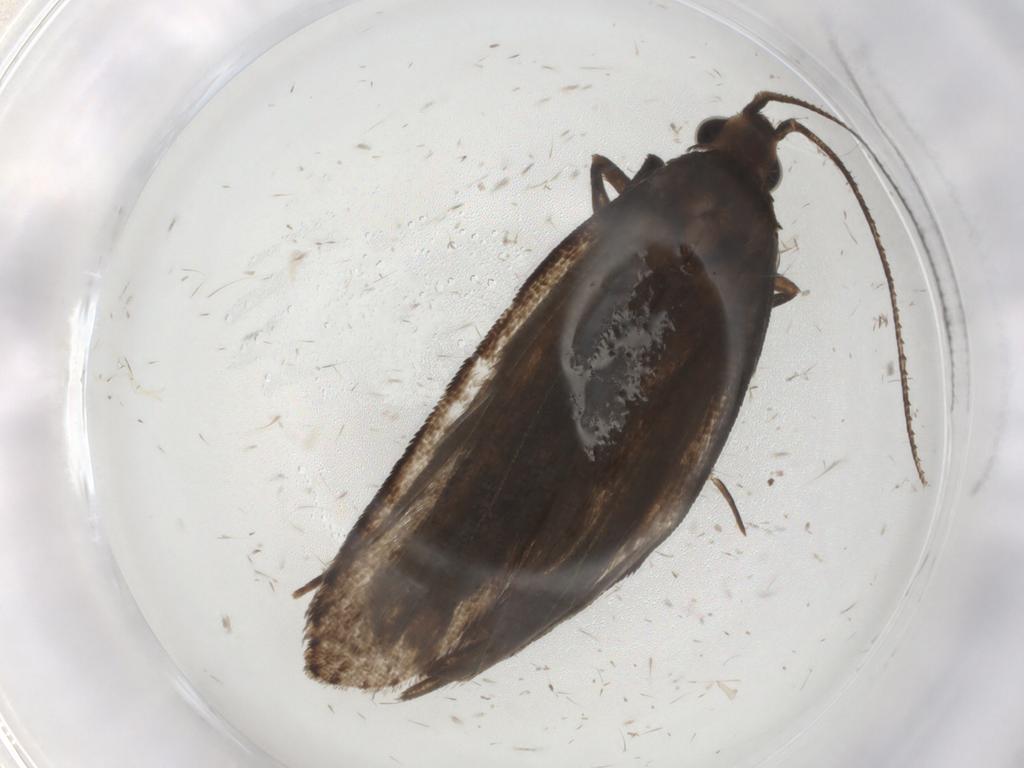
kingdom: Animalia
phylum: Arthropoda
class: Insecta
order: Lepidoptera
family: Gelechiidae
